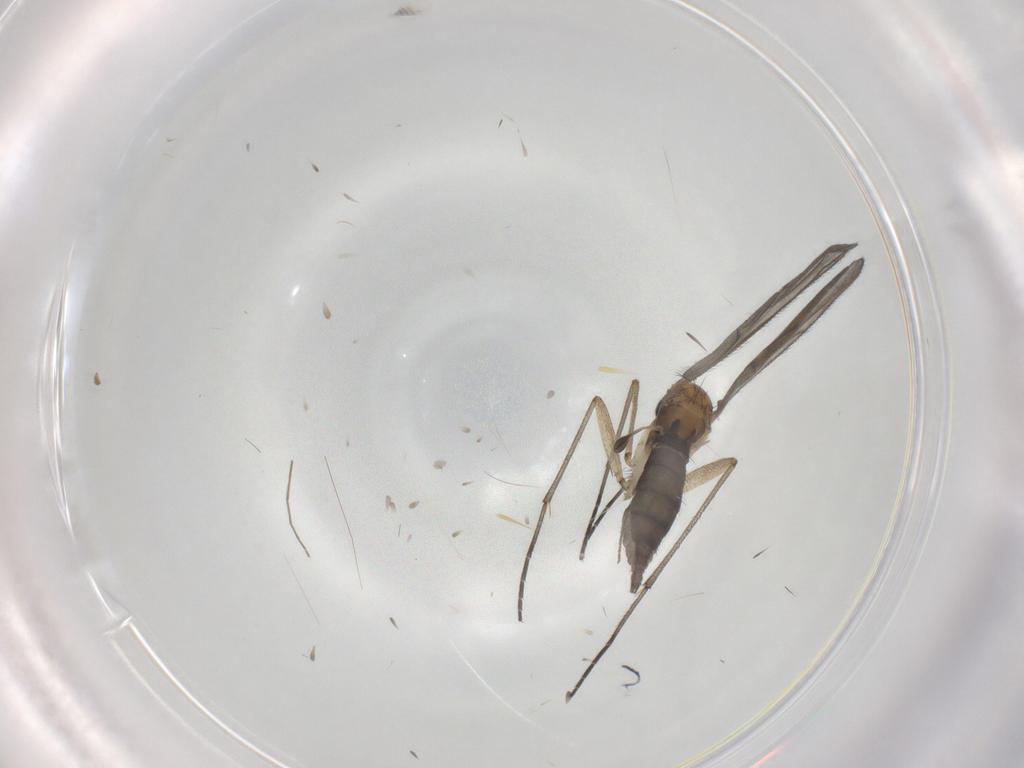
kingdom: Animalia
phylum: Arthropoda
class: Insecta
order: Diptera
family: Sciaridae
